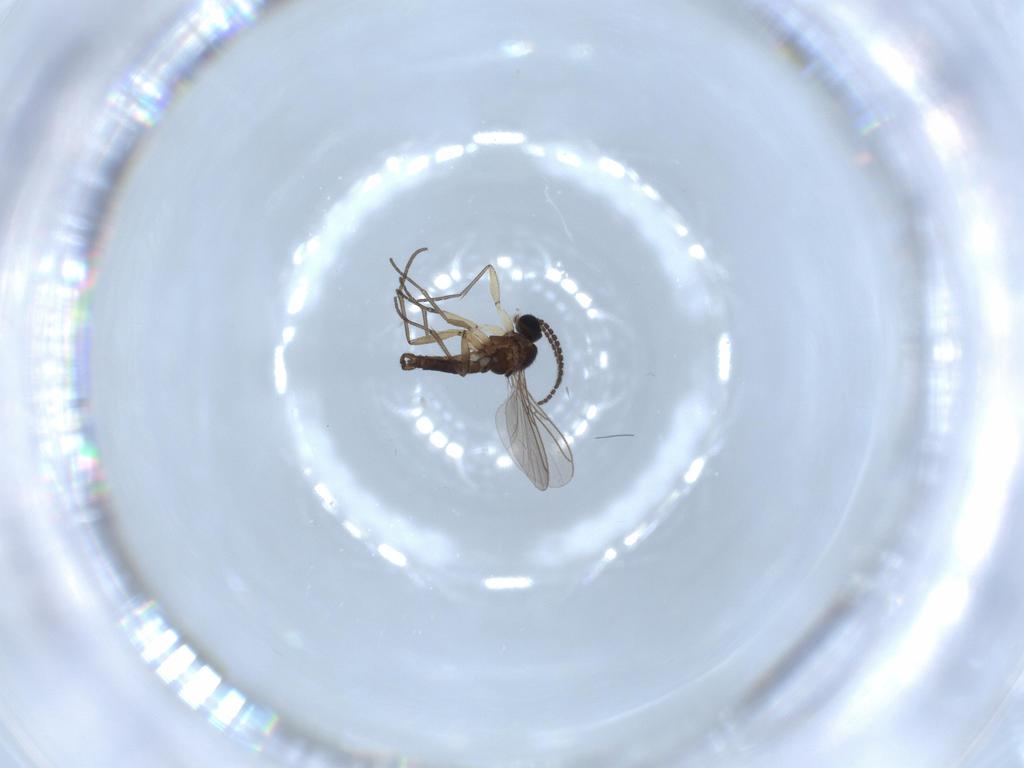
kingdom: Animalia
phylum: Arthropoda
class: Insecta
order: Diptera
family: Sciaridae
